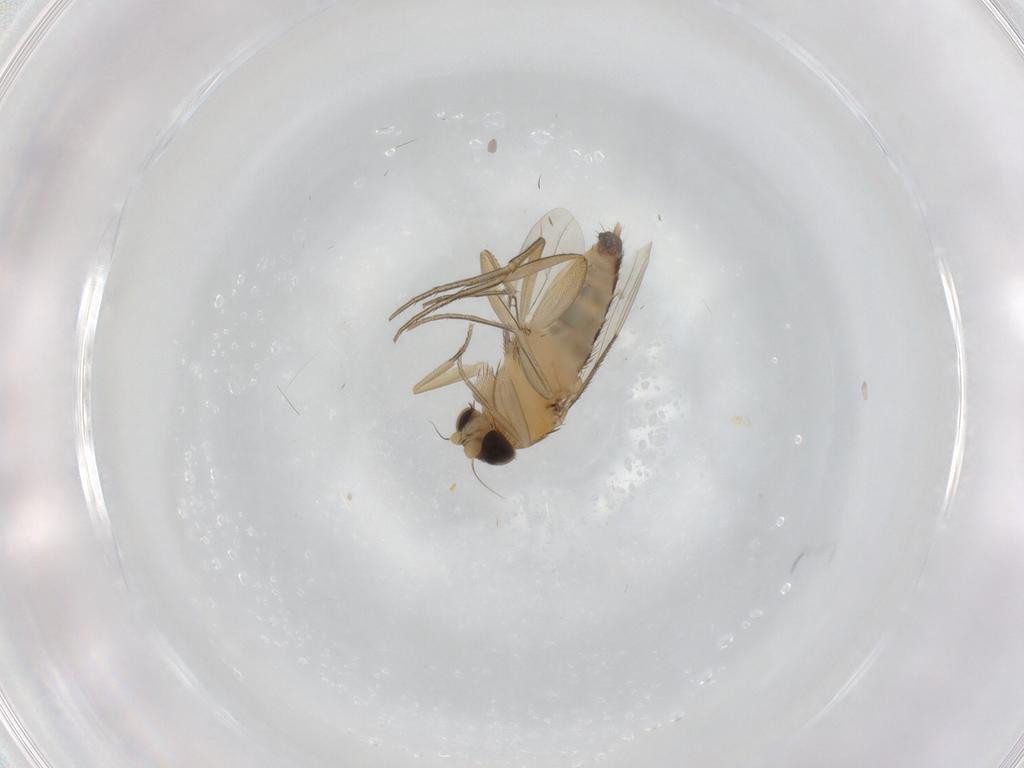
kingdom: Animalia
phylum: Arthropoda
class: Insecta
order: Diptera
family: Phoridae
